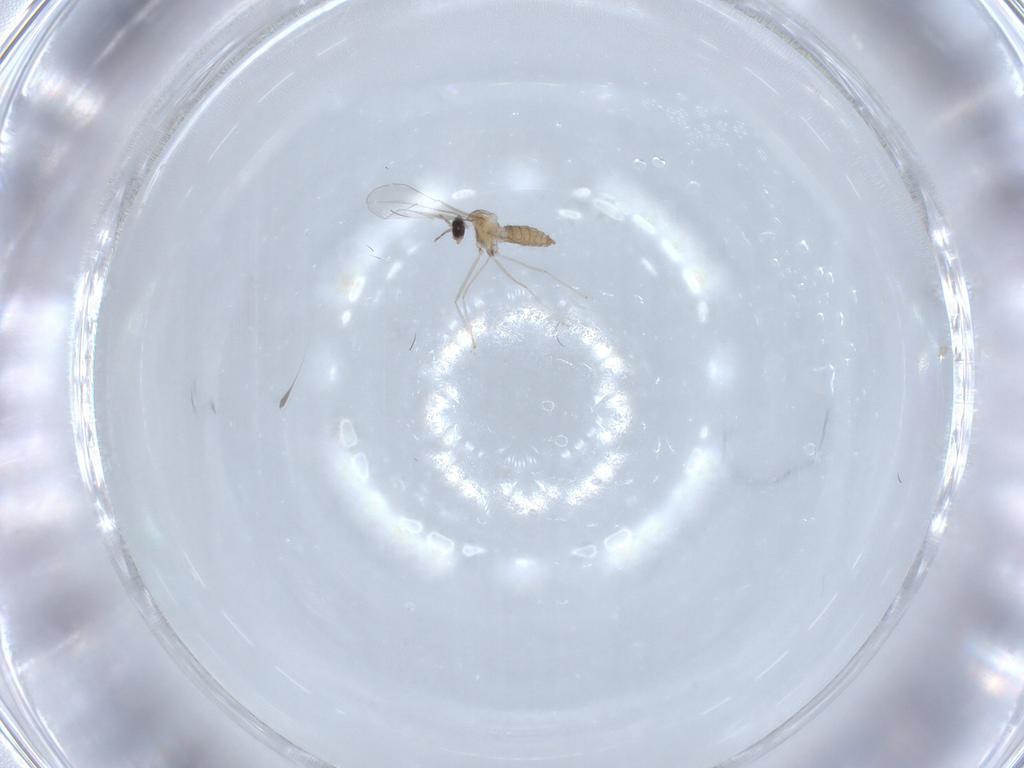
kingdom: Animalia
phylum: Arthropoda
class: Insecta
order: Diptera
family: Cecidomyiidae
